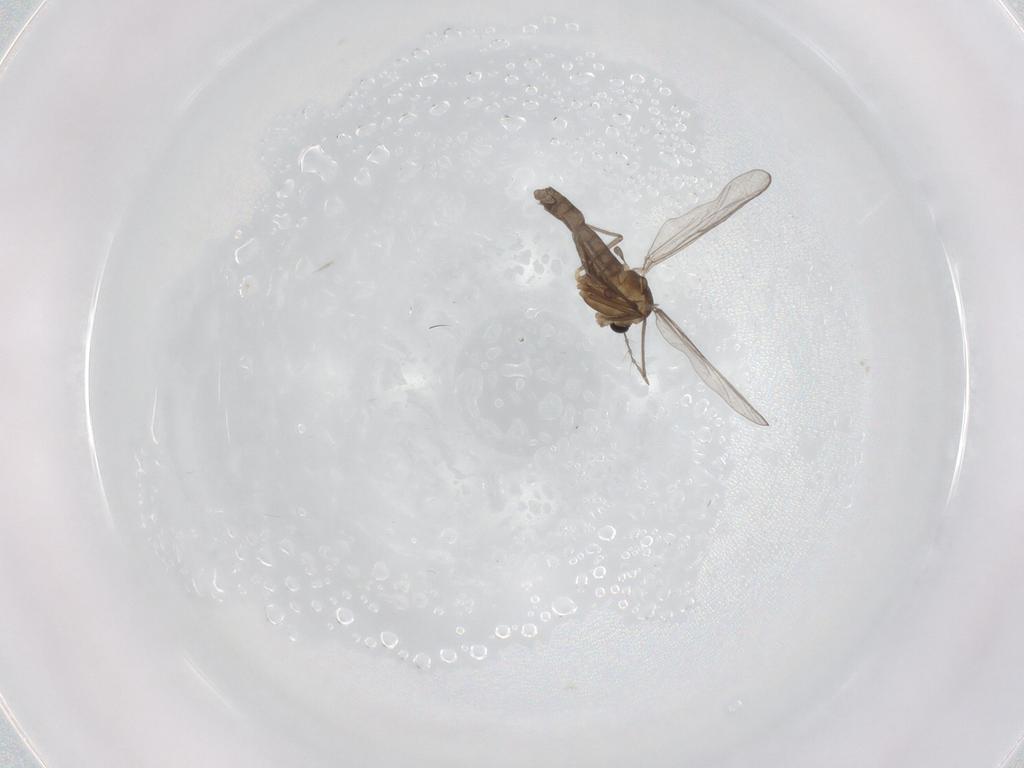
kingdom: Animalia
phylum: Arthropoda
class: Insecta
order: Diptera
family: Chironomidae
